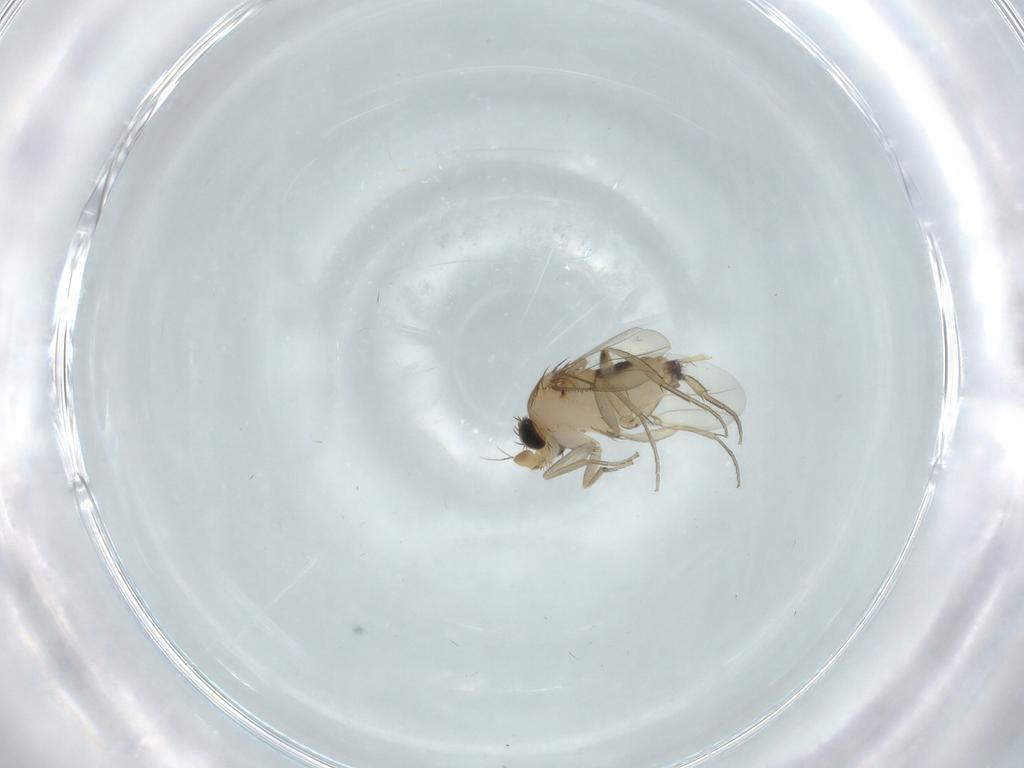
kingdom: Animalia
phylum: Arthropoda
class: Insecta
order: Diptera
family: Phoridae
